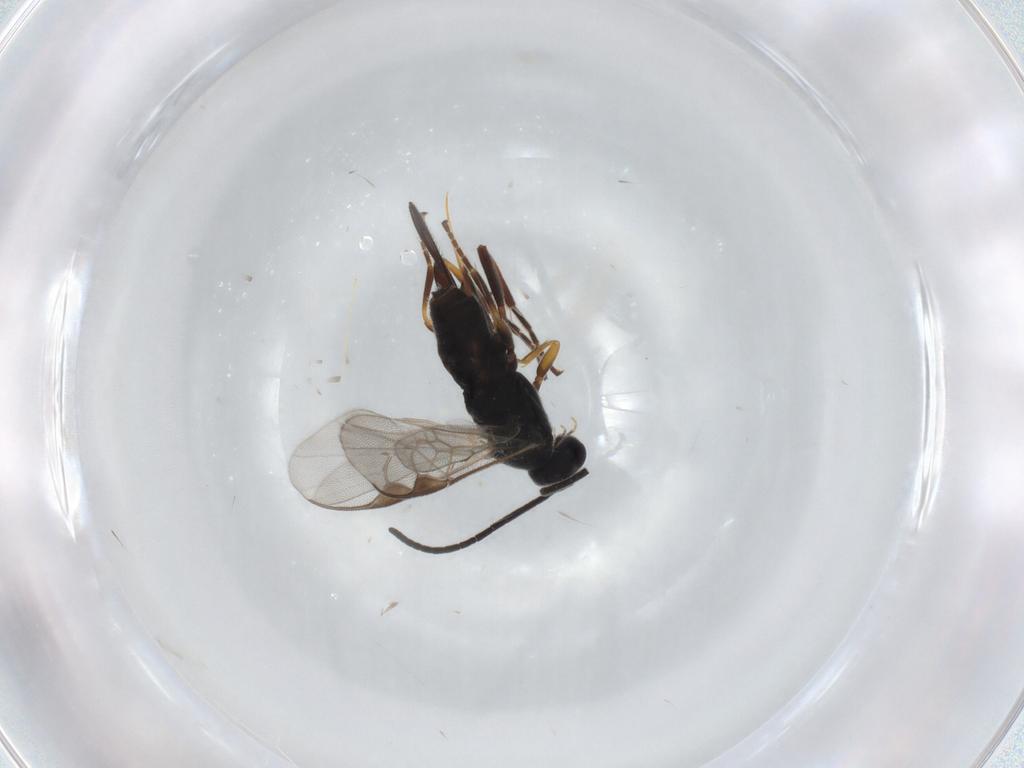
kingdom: Animalia
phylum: Arthropoda
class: Insecta
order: Hymenoptera
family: Braconidae
